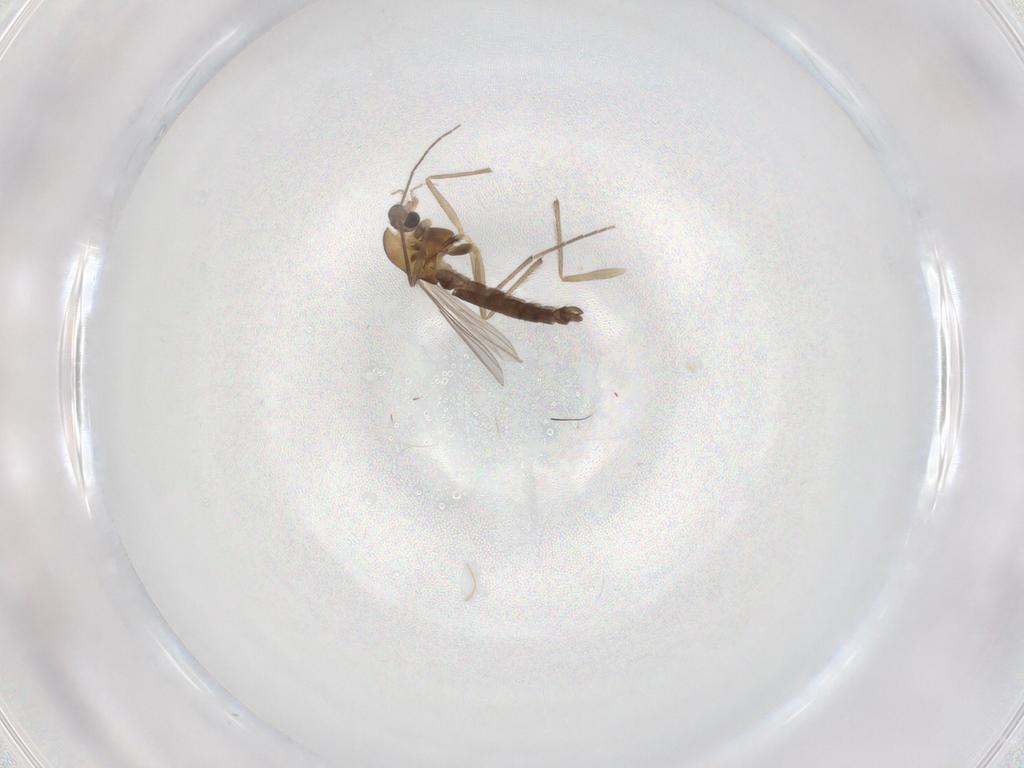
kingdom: Animalia
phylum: Arthropoda
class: Insecta
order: Diptera
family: Chironomidae
